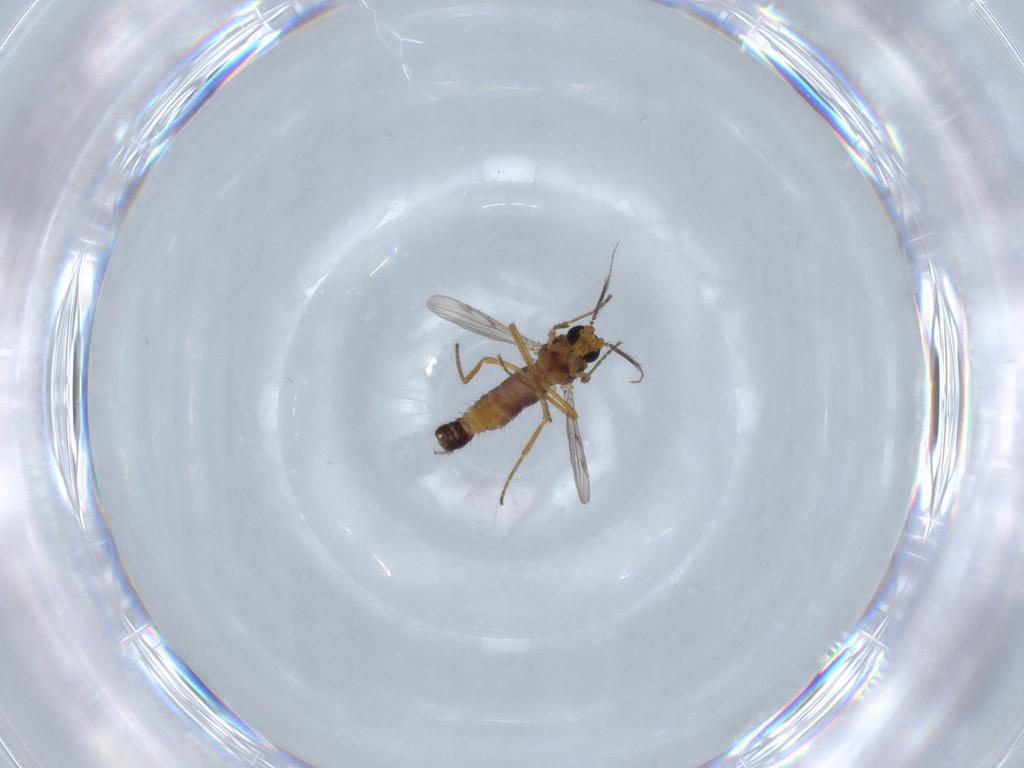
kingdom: Animalia
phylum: Arthropoda
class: Insecta
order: Diptera
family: Ceratopogonidae
